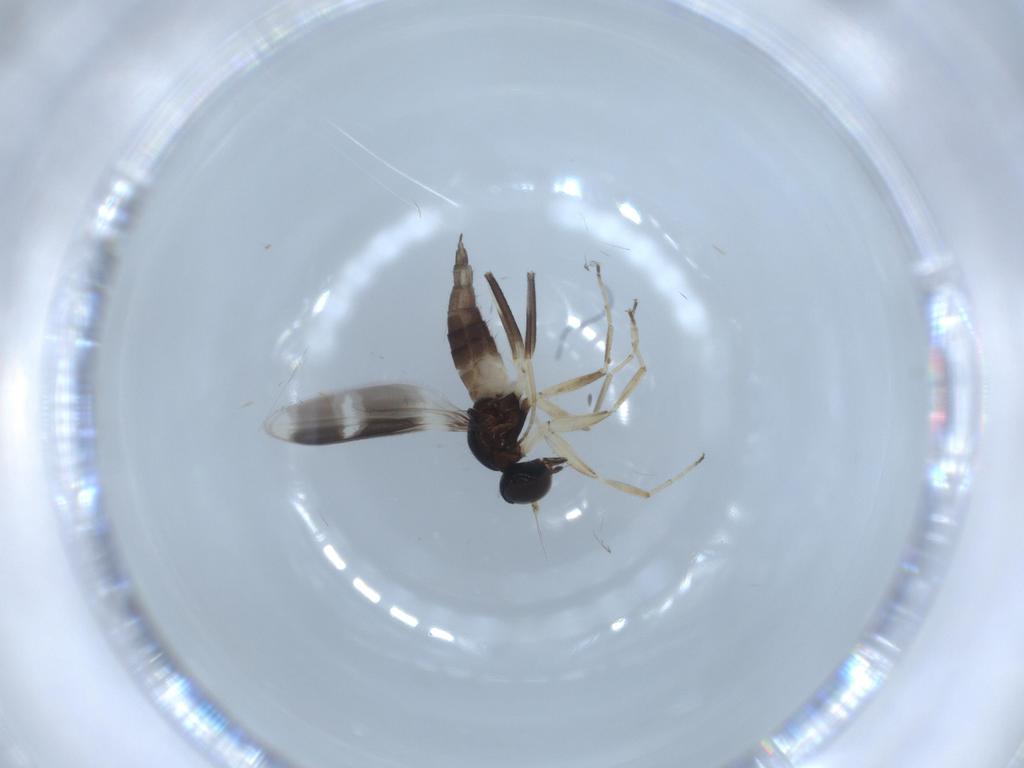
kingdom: Animalia
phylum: Arthropoda
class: Insecta
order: Diptera
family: Hybotidae
